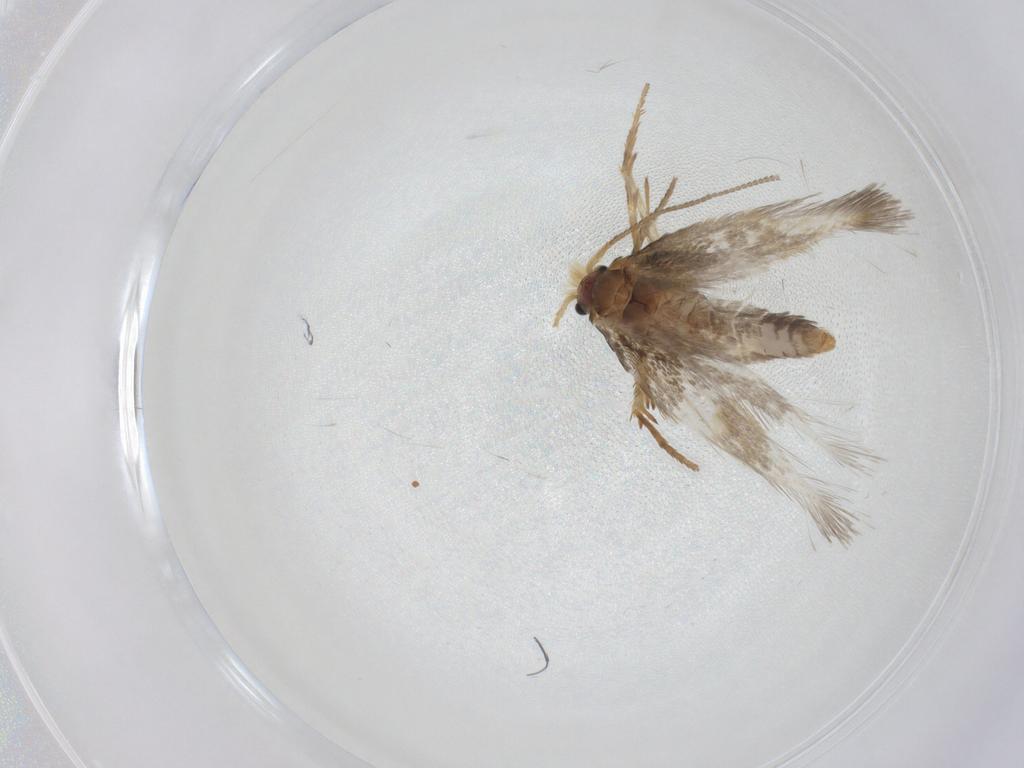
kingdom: Animalia
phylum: Arthropoda
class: Insecta
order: Lepidoptera
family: Nepticulidae
